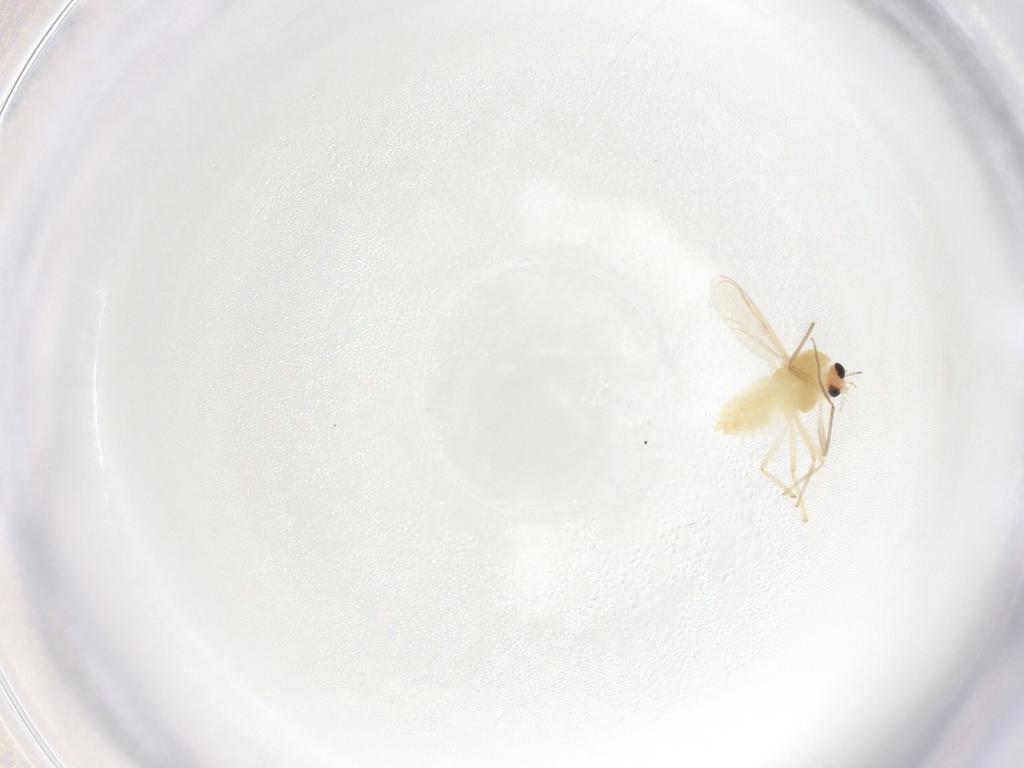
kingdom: Animalia
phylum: Arthropoda
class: Insecta
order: Diptera
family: Chironomidae
